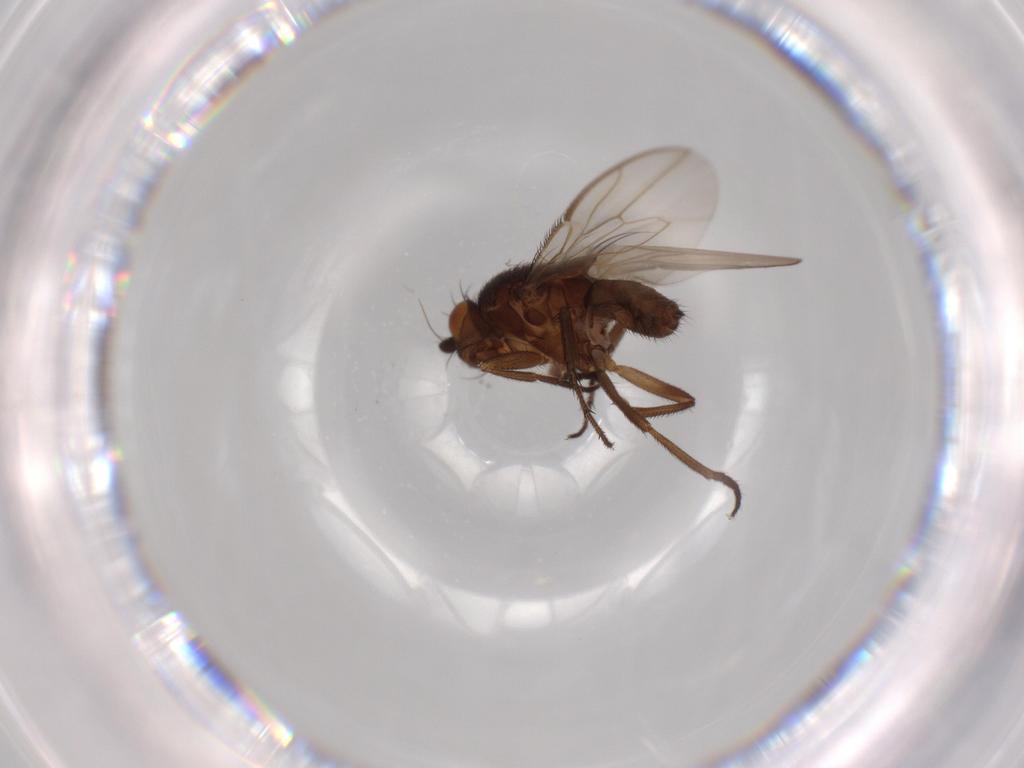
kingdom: Animalia
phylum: Arthropoda
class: Insecta
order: Diptera
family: Sphaeroceridae
